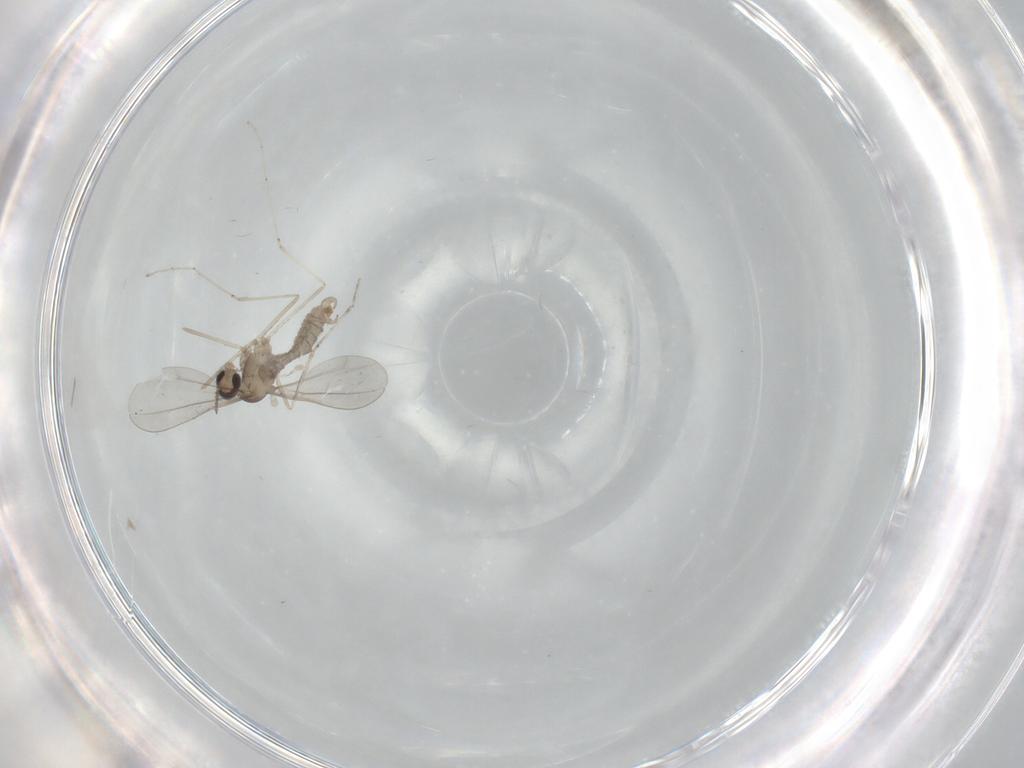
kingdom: Animalia
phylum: Arthropoda
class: Insecta
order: Diptera
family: Cecidomyiidae
